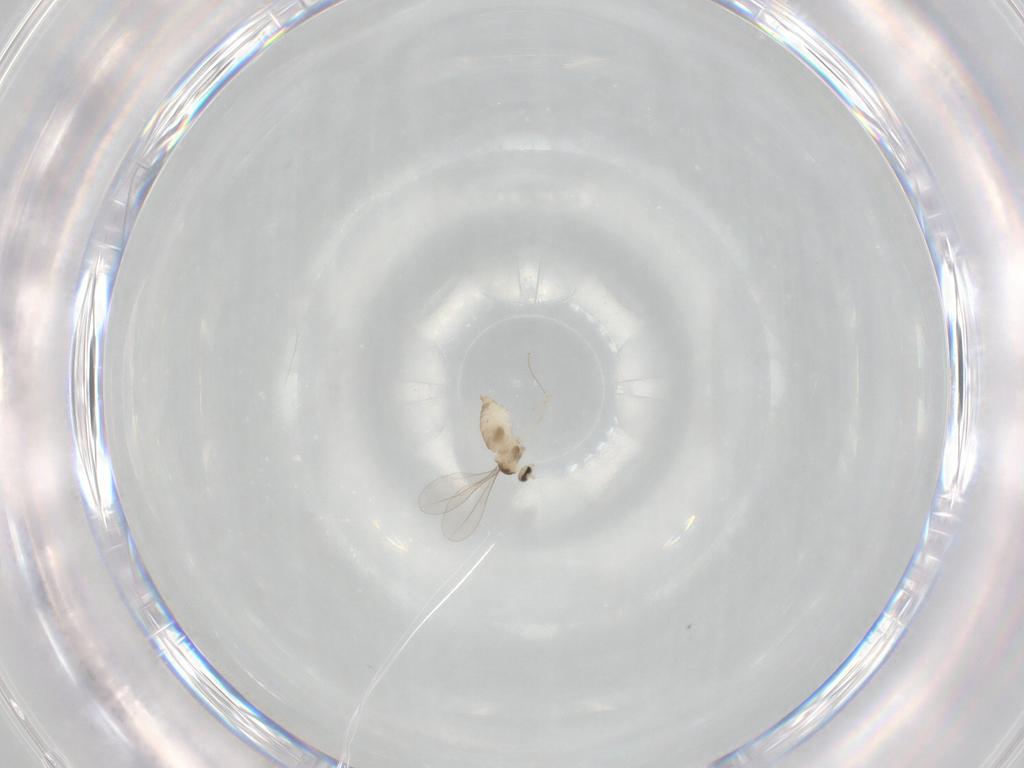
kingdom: Animalia
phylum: Arthropoda
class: Insecta
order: Diptera
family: Cecidomyiidae
